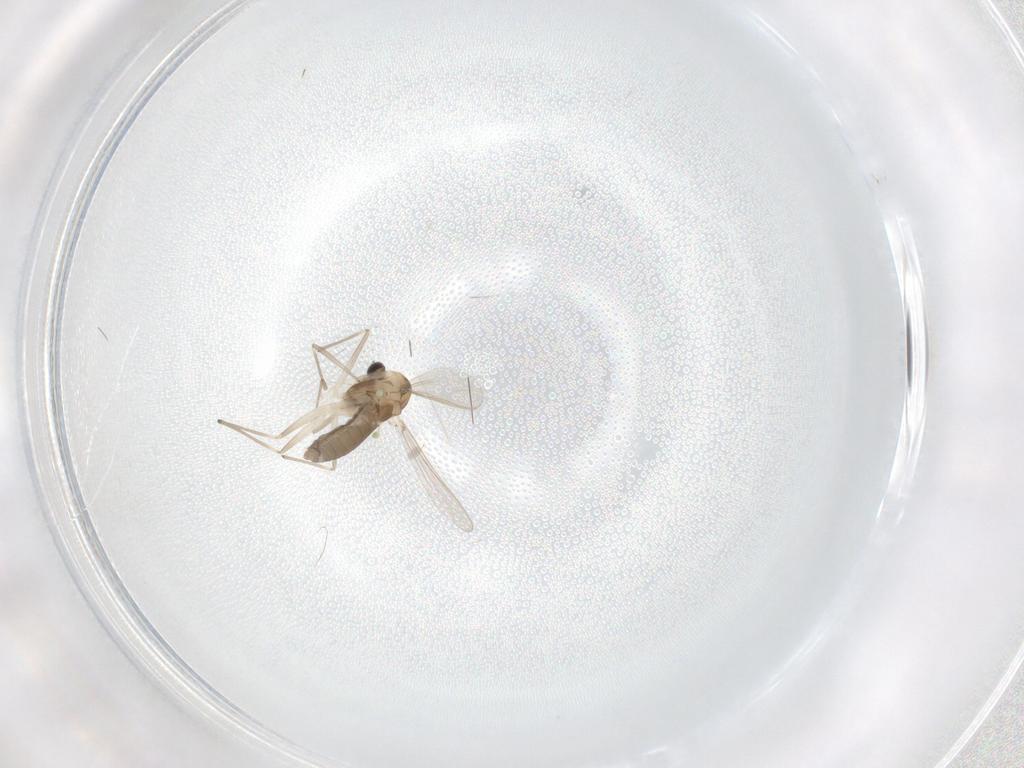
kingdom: Animalia
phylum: Arthropoda
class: Insecta
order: Diptera
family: Chironomidae
